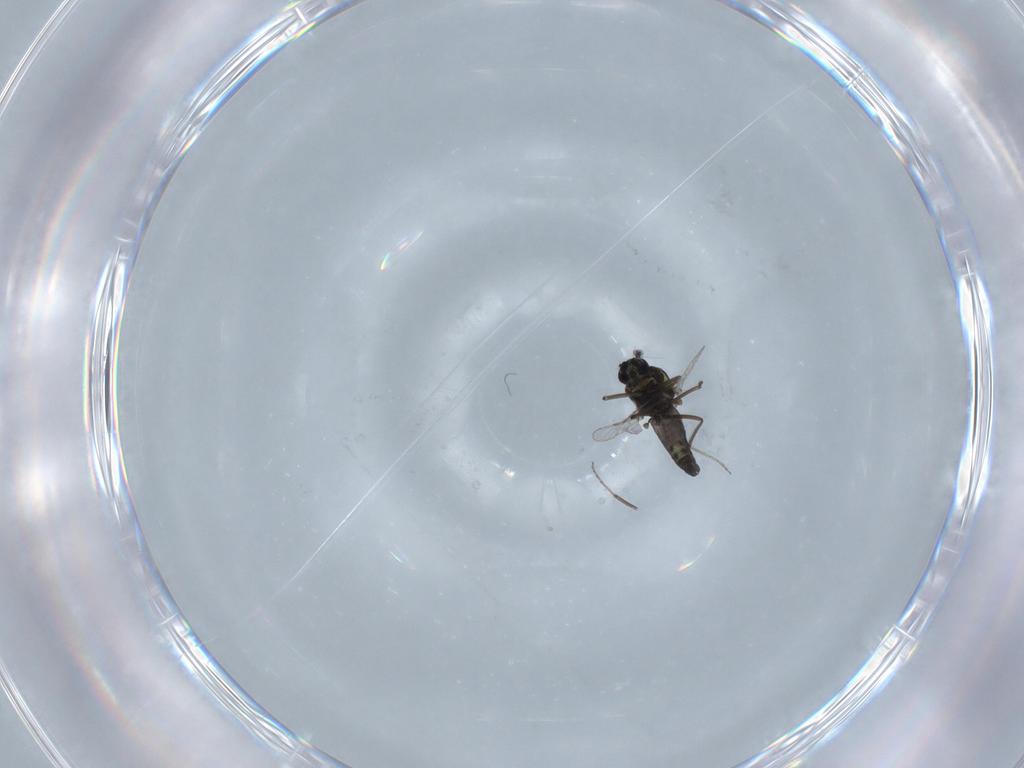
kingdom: Animalia
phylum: Arthropoda
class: Insecta
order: Diptera
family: Ceratopogonidae
